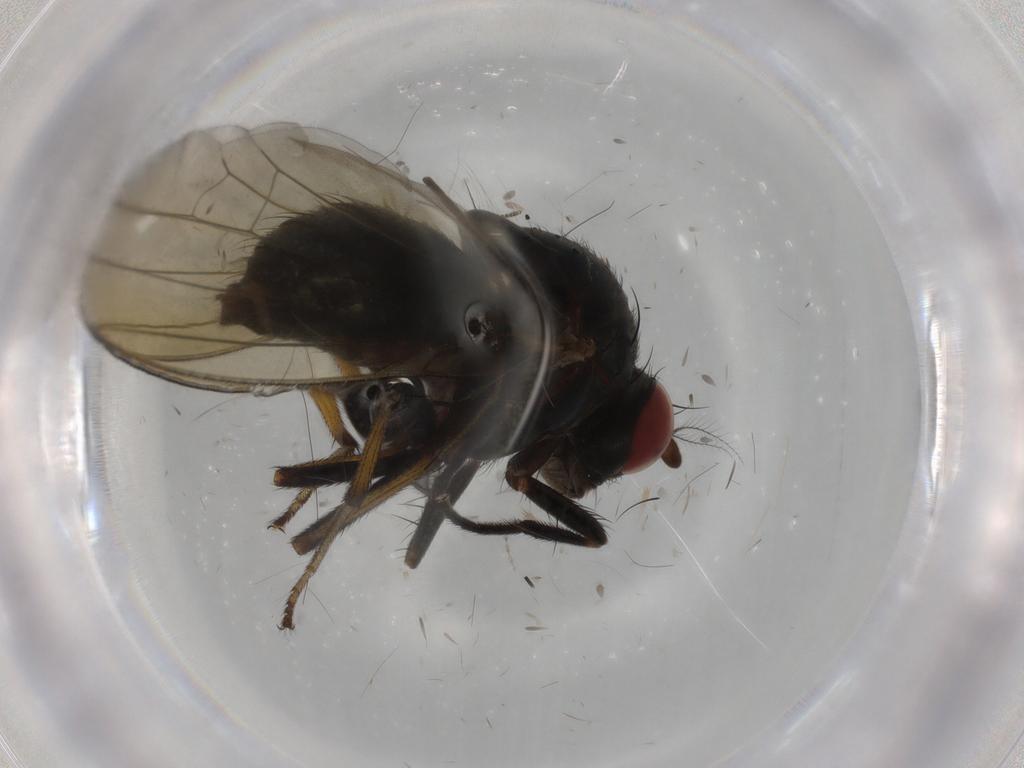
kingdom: Animalia
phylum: Arthropoda
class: Insecta
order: Diptera
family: Mycetophilidae
